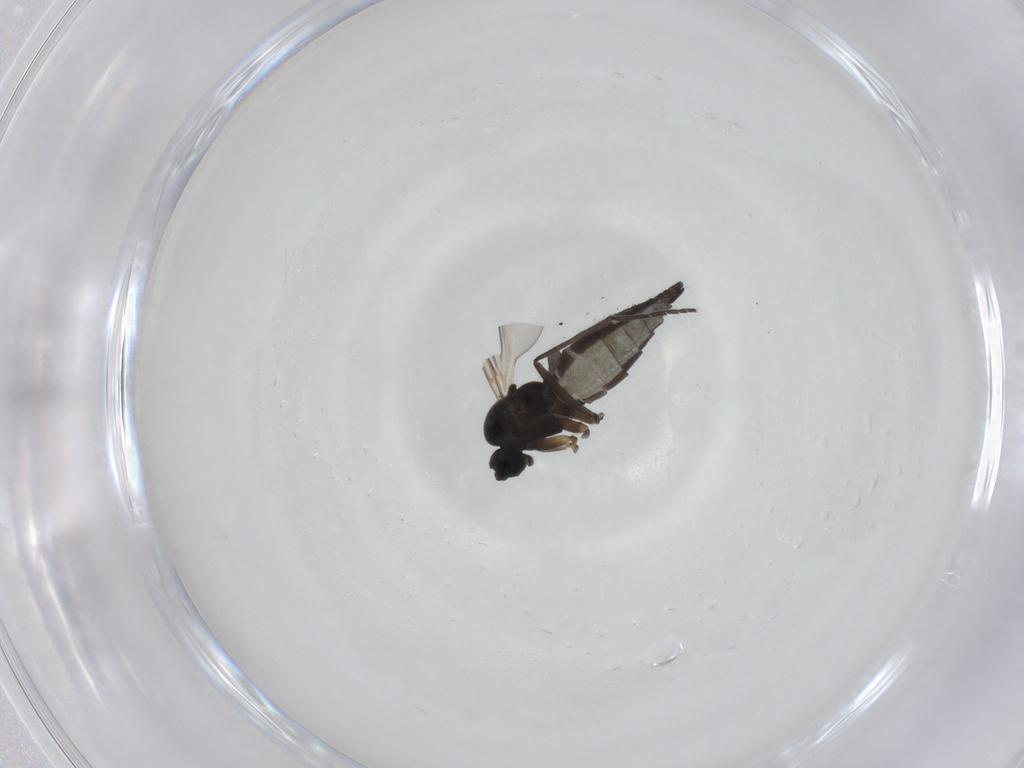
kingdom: Animalia
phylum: Arthropoda
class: Insecta
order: Diptera
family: Sciaridae
